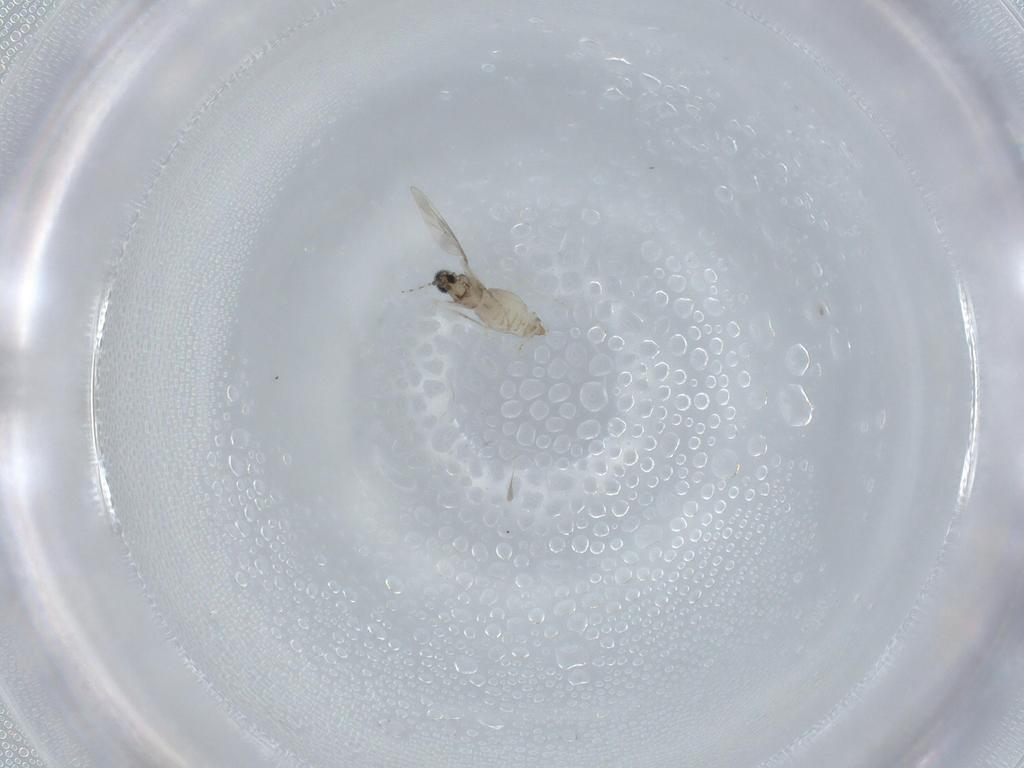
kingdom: Animalia
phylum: Arthropoda
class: Insecta
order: Diptera
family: Cecidomyiidae
